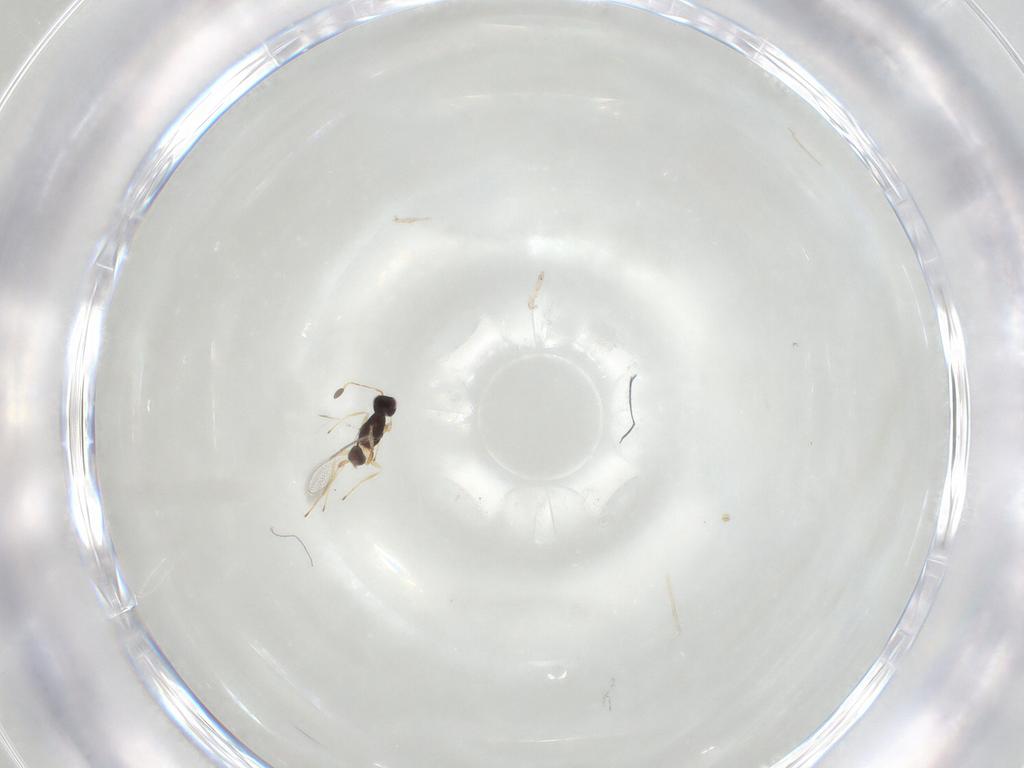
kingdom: Animalia
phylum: Arthropoda
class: Insecta
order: Hymenoptera
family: Mymaridae
